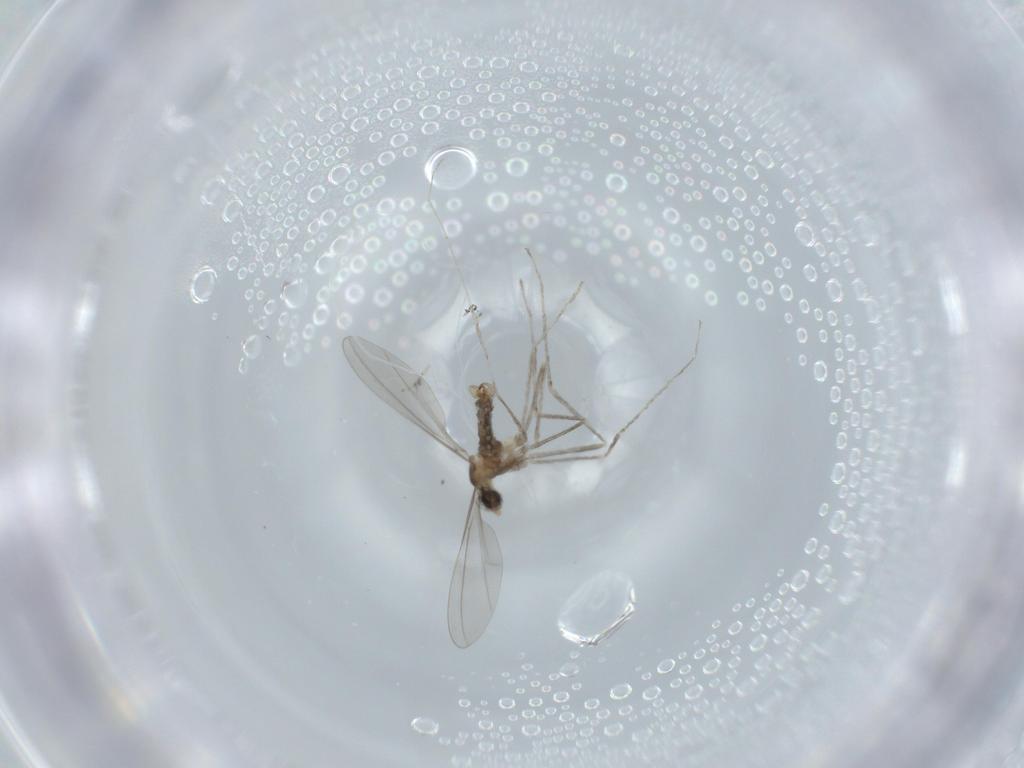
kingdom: Animalia
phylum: Arthropoda
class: Insecta
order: Diptera
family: Cecidomyiidae
